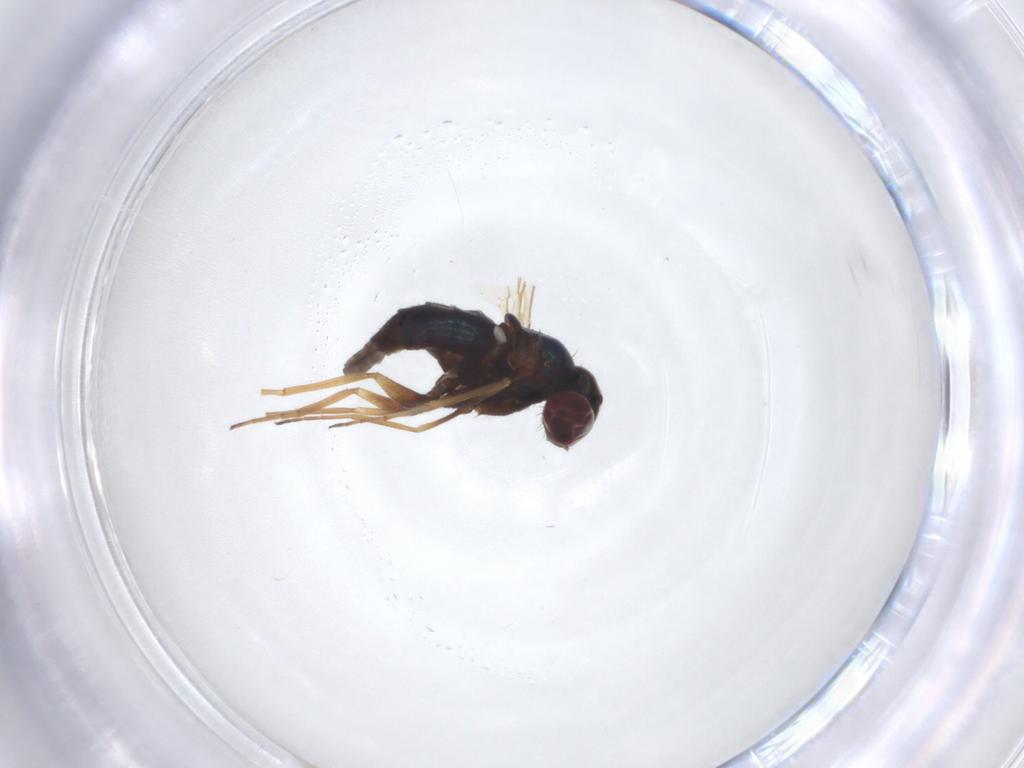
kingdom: Animalia
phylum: Arthropoda
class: Insecta
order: Diptera
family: Dolichopodidae
